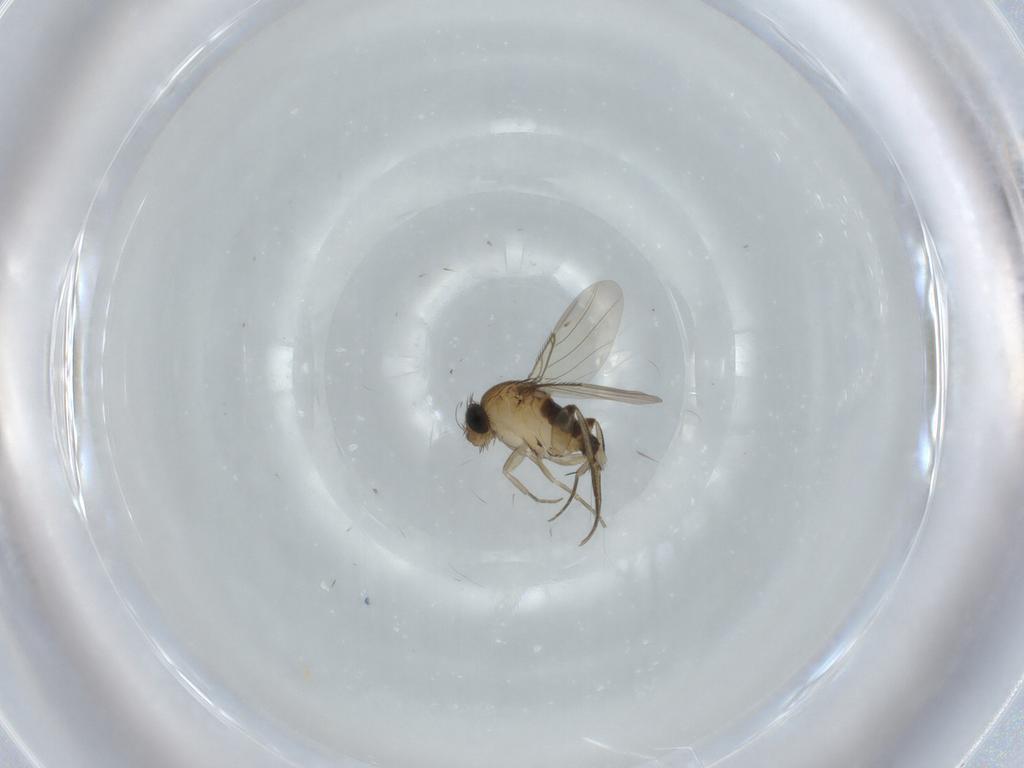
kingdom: Animalia
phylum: Arthropoda
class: Insecta
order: Diptera
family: Phoridae
